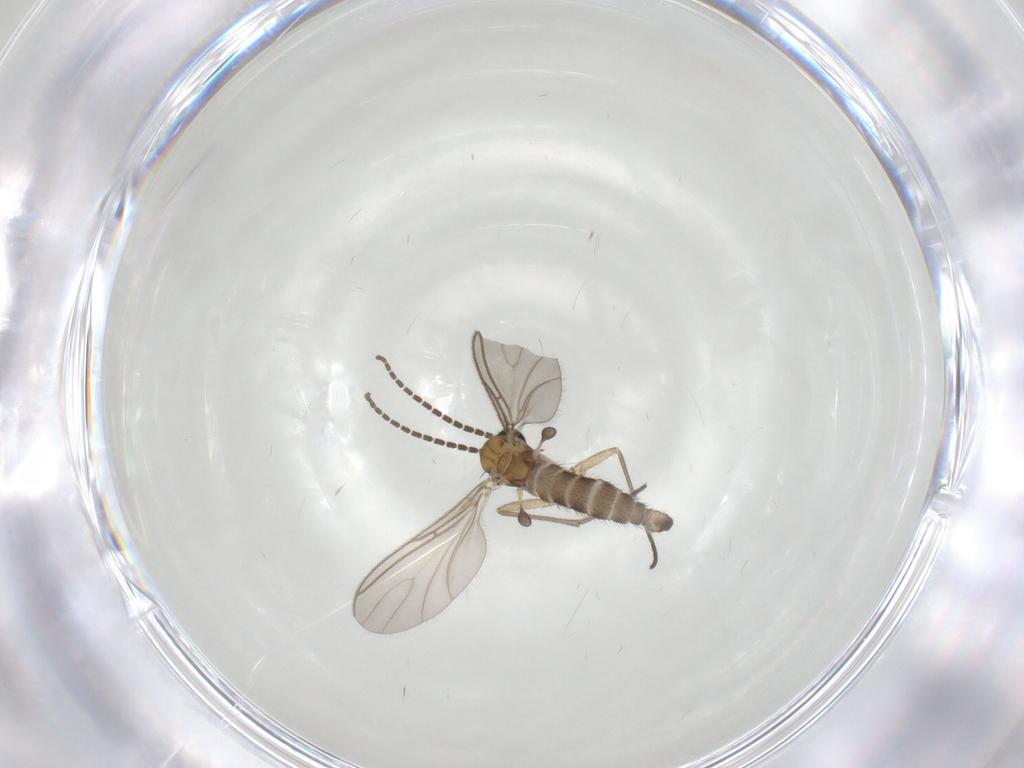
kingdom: Animalia
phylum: Arthropoda
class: Insecta
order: Diptera
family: Sciaridae
